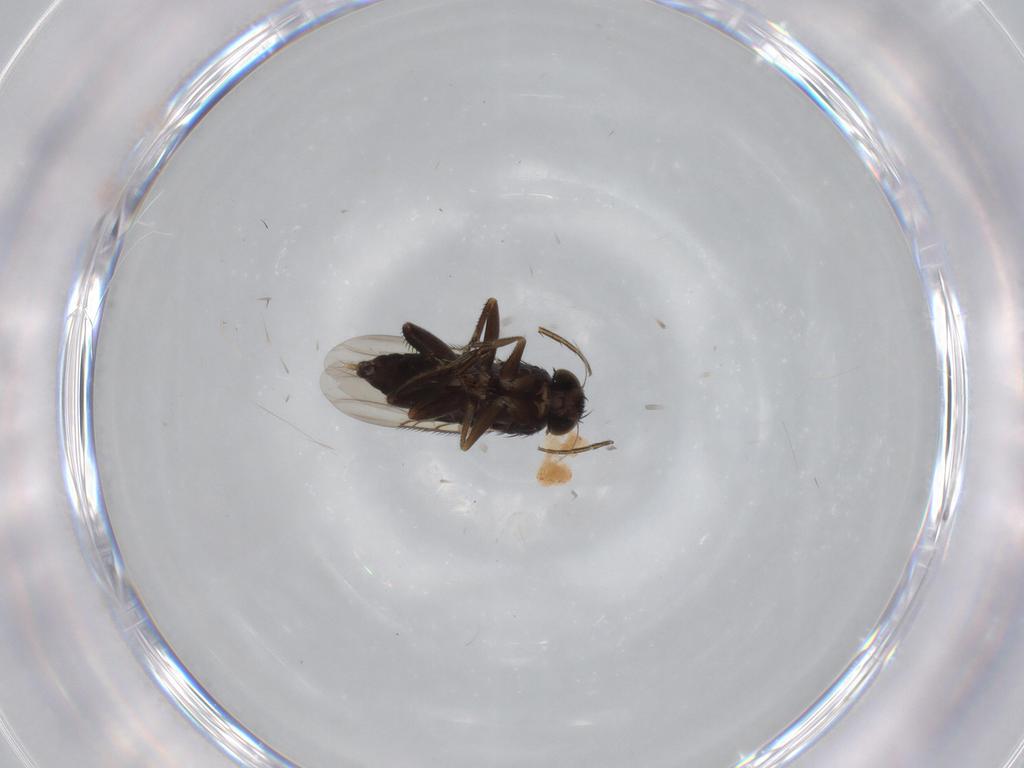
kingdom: Animalia
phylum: Arthropoda
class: Insecta
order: Diptera
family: Phoridae
